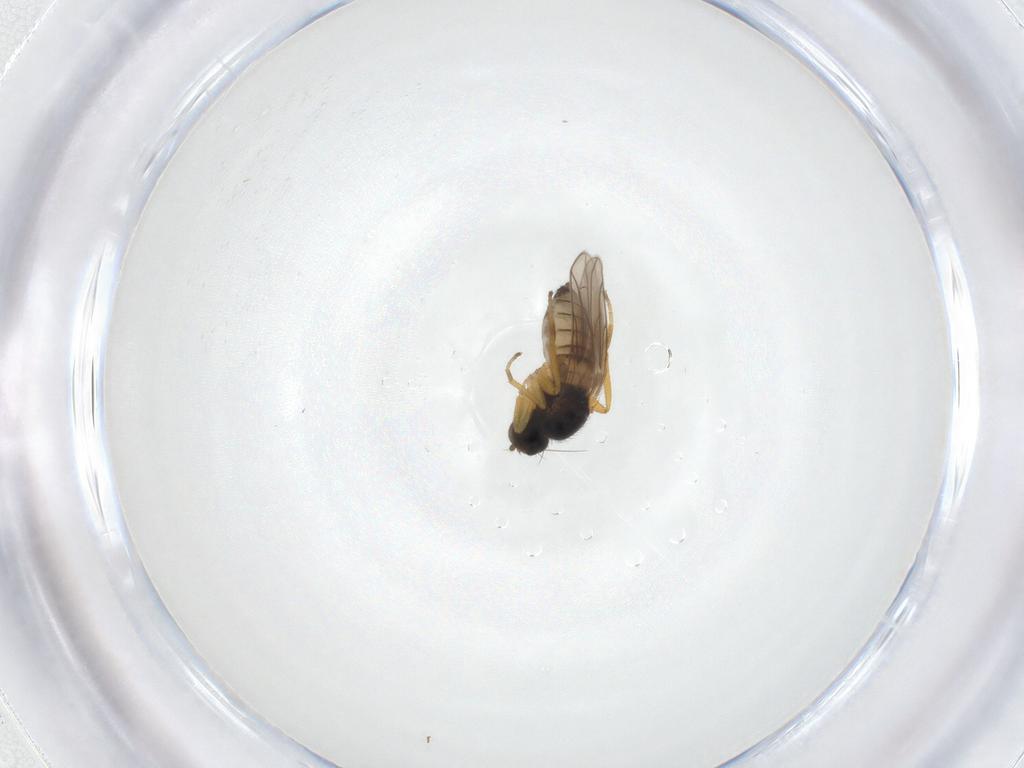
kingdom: Animalia
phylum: Arthropoda
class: Insecta
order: Diptera
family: Hybotidae
